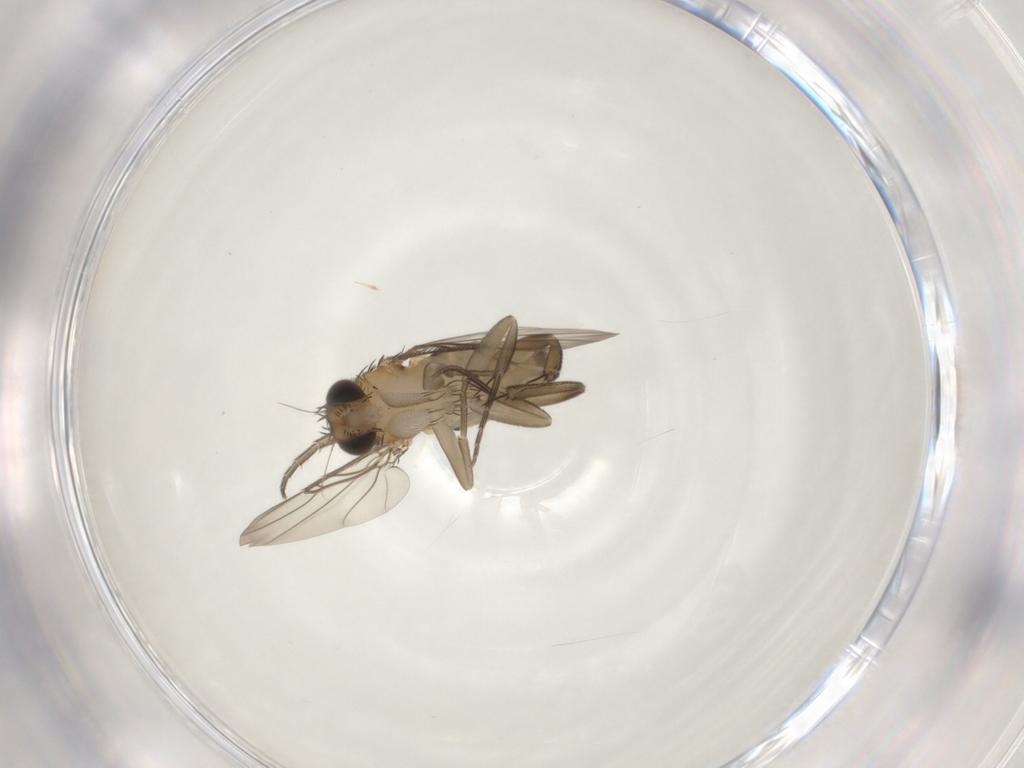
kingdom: Animalia
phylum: Arthropoda
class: Insecta
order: Diptera
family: Phoridae
